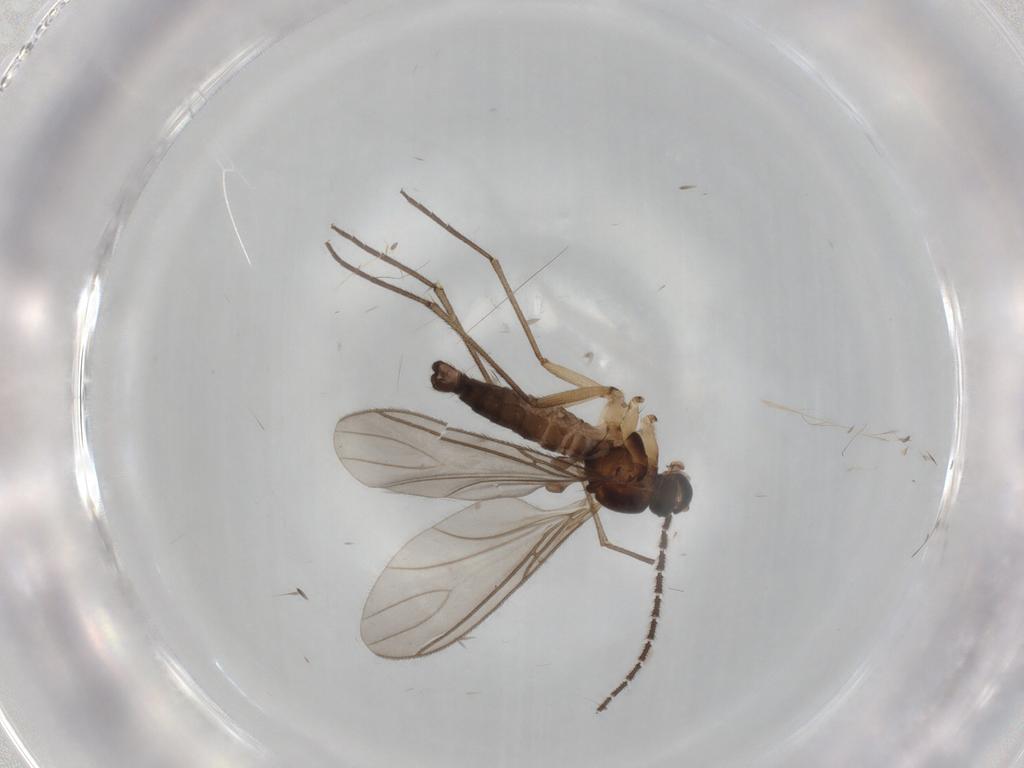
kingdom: Animalia
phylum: Arthropoda
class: Insecta
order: Diptera
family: Sciaridae
